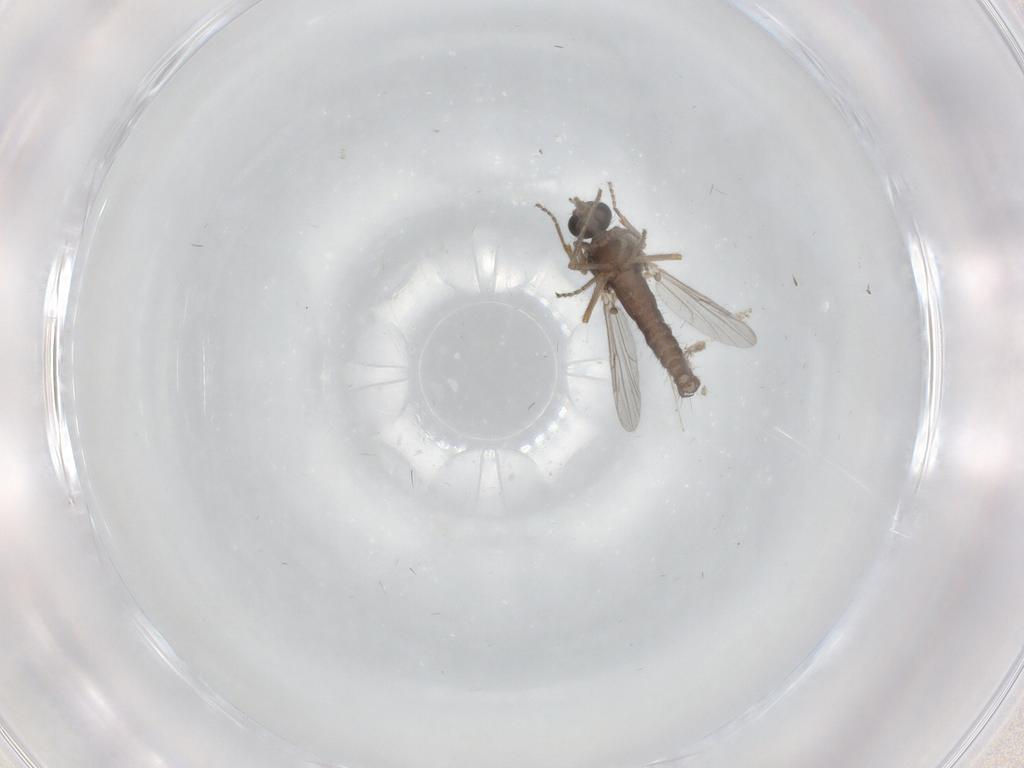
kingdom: Animalia
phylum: Arthropoda
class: Insecta
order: Diptera
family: Ceratopogonidae
